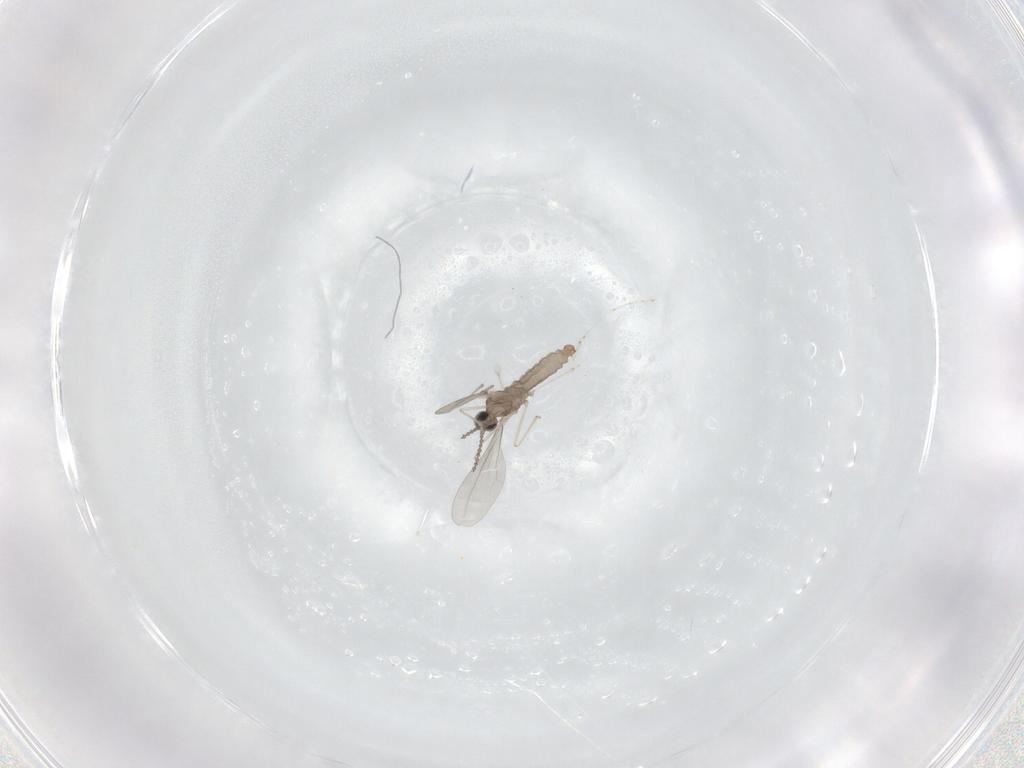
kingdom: Animalia
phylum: Arthropoda
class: Insecta
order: Diptera
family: Cecidomyiidae
